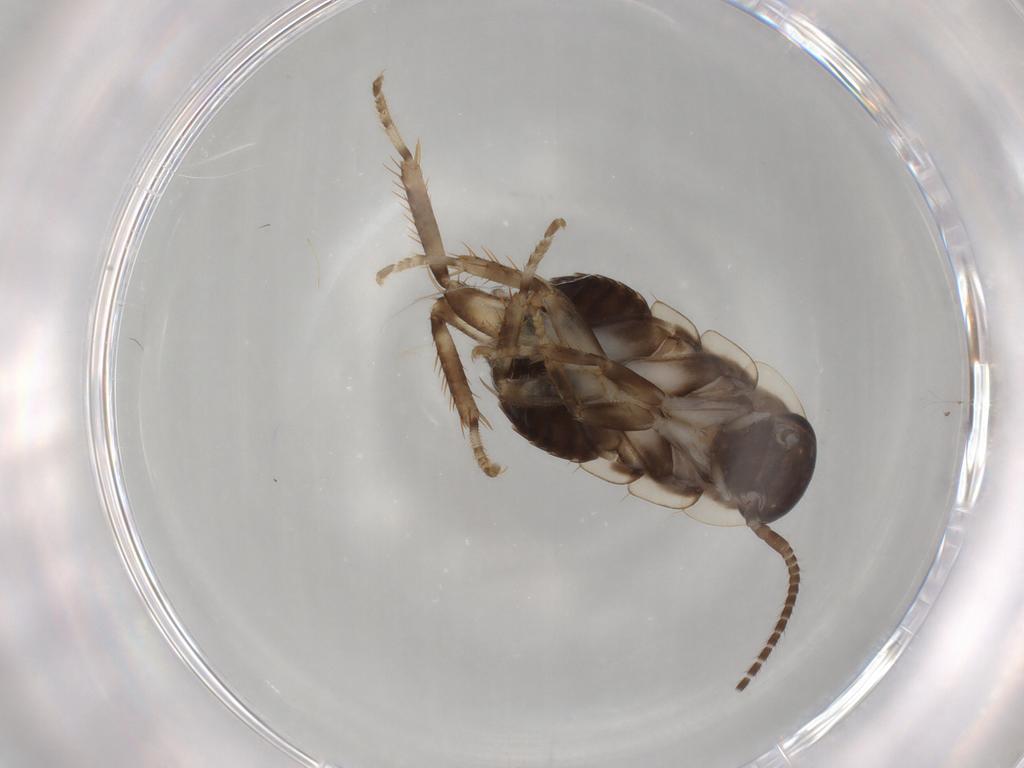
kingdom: Animalia
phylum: Arthropoda
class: Insecta
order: Blattodea
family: Blaberidae
